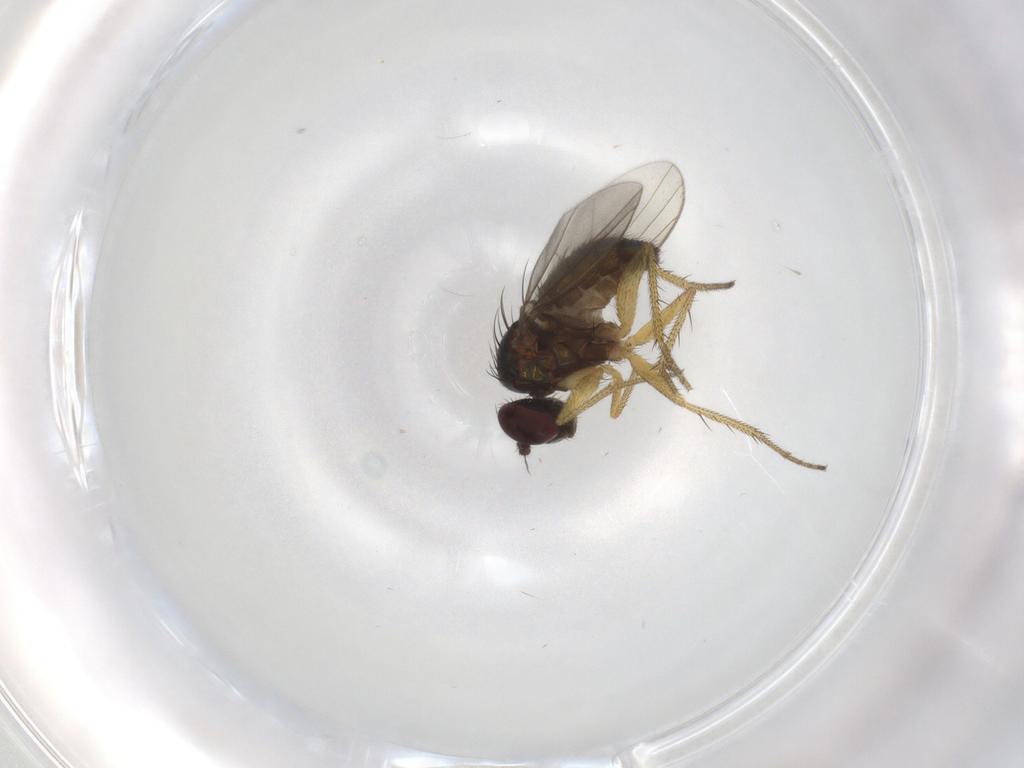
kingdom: Animalia
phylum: Arthropoda
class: Insecta
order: Diptera
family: Dolichopodidae
